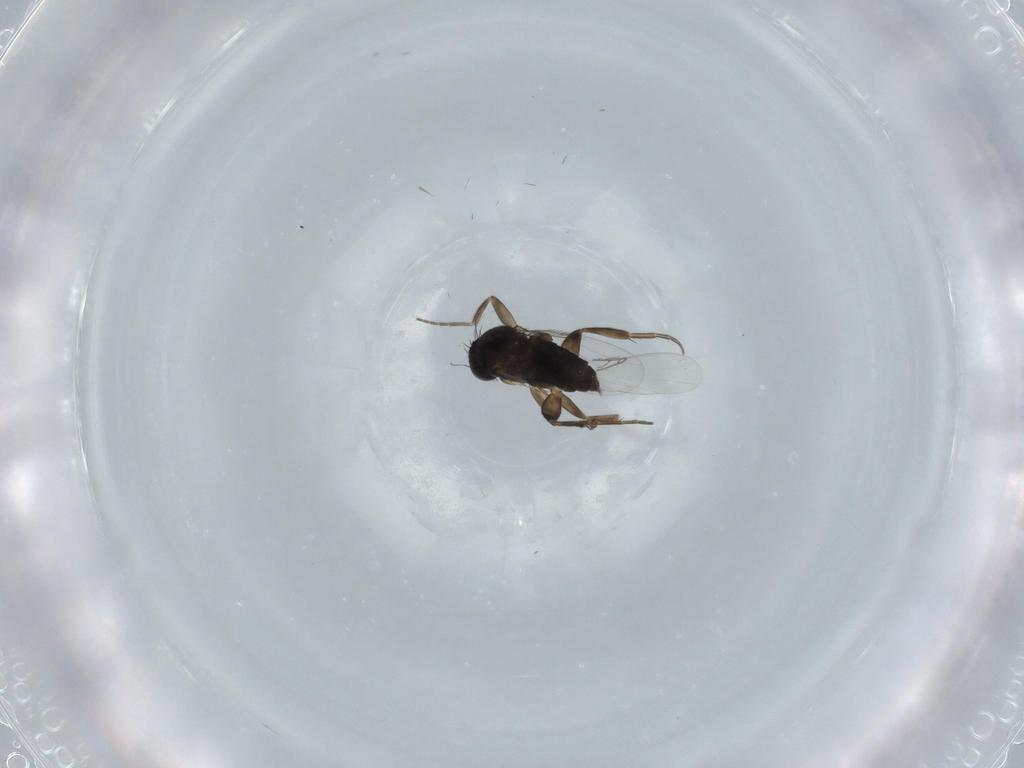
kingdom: Animalia
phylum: Arthropoda
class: Insecta
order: Diptera
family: Phoridae
